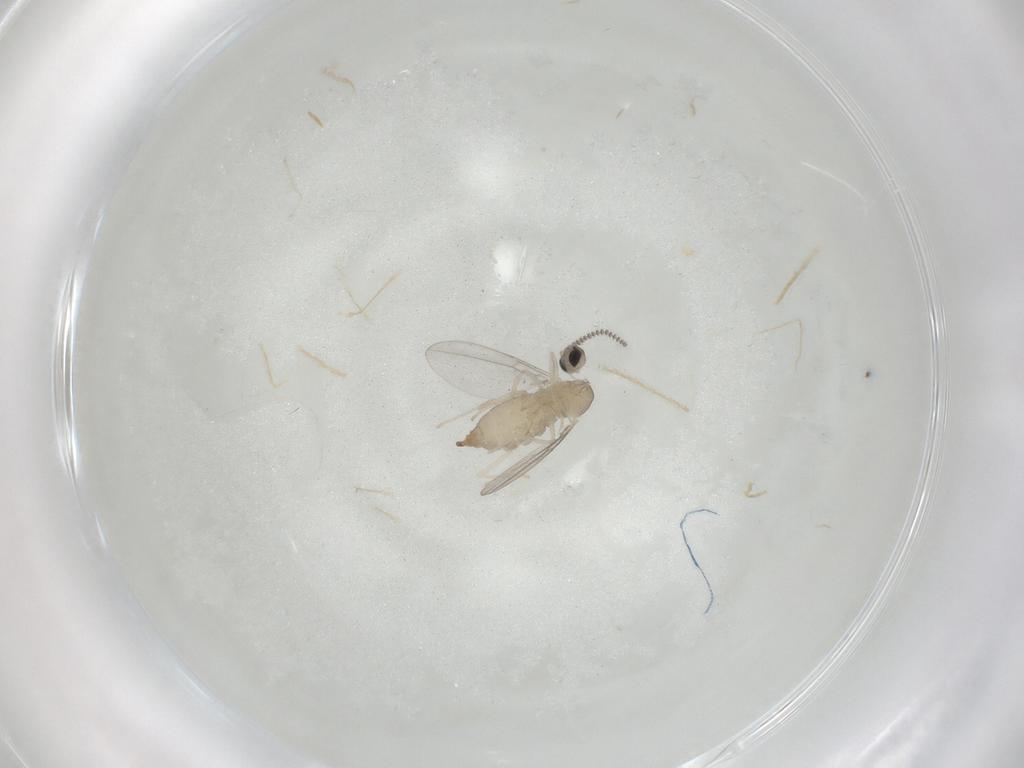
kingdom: Animalia
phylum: Arthropoda
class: Insecta
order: Diptera
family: Cecidomyiidae
